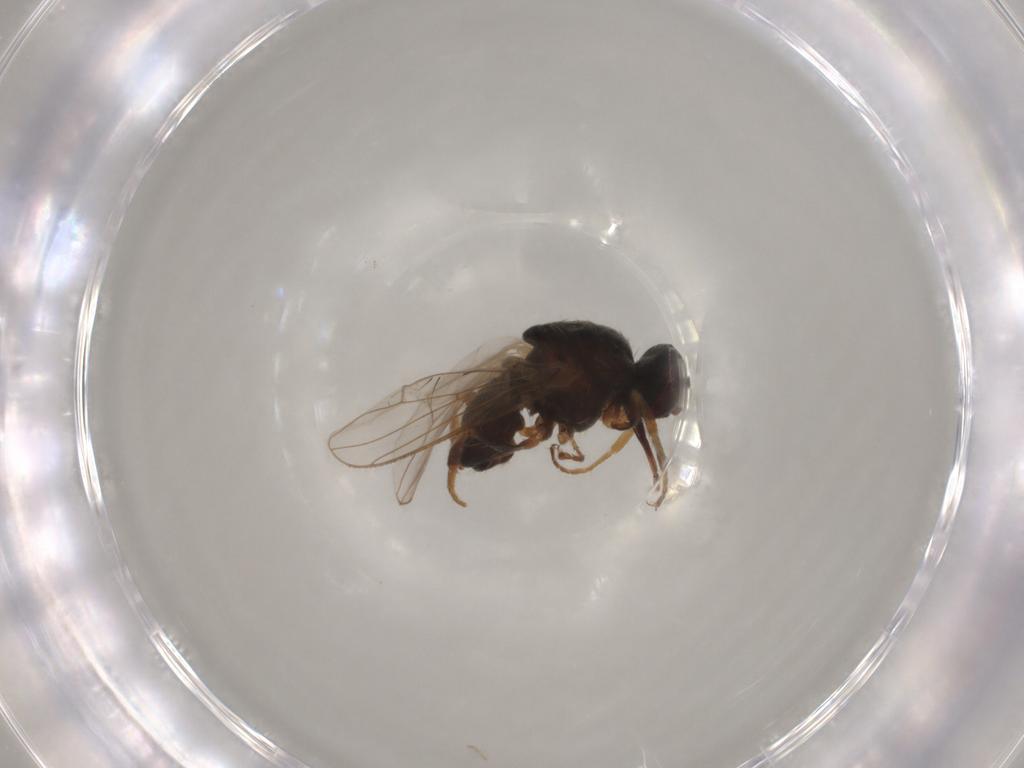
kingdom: Animalia
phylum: Arthropoda
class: Insecta
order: Diptera
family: Muscidae
